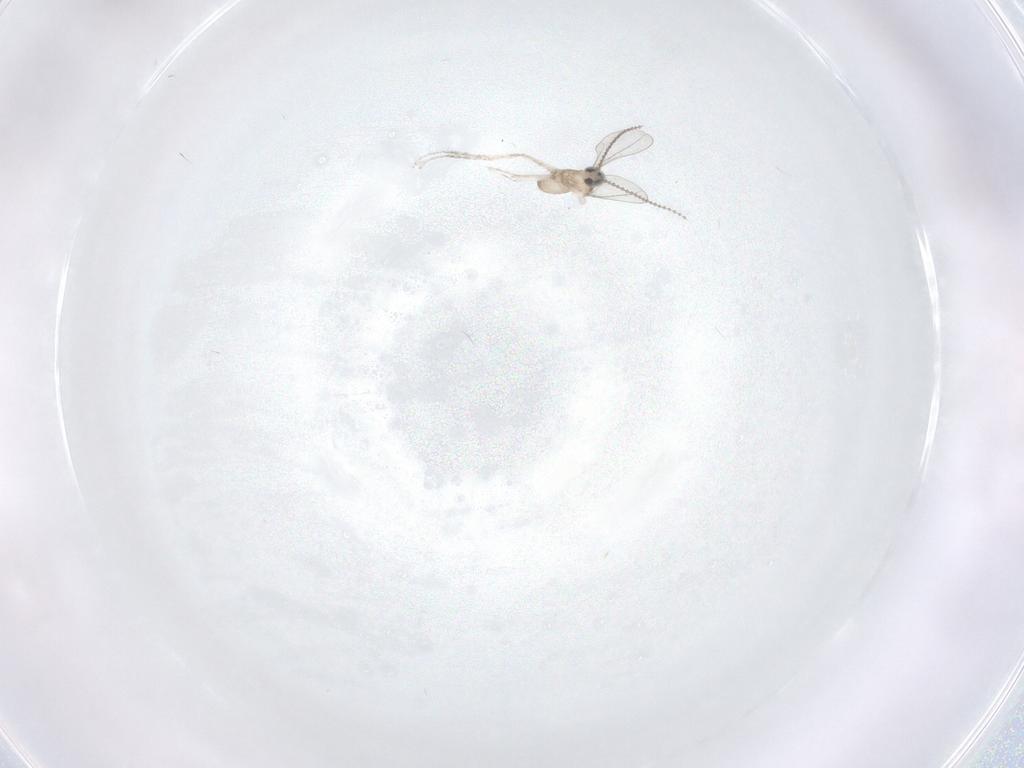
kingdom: Animalia
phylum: Arthropoda
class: Insecta
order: Diptera
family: Cecidomyiidae
